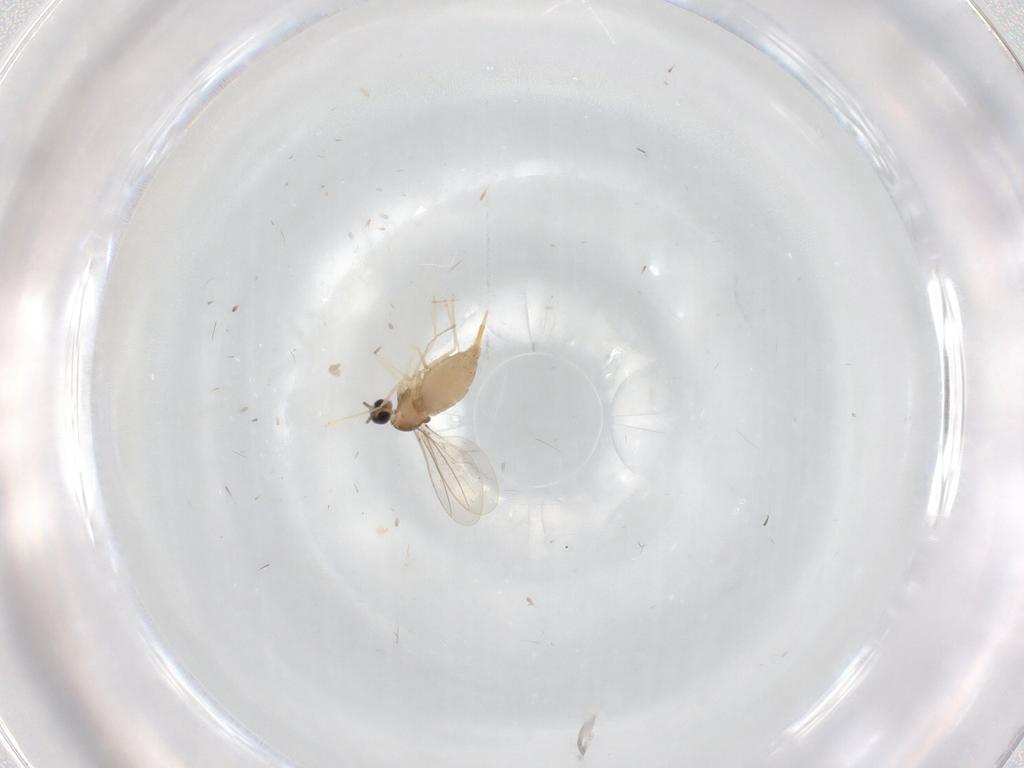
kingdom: Animalia
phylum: Arthropoda
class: Insecta
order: Diptera
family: Cecidomyiidae
